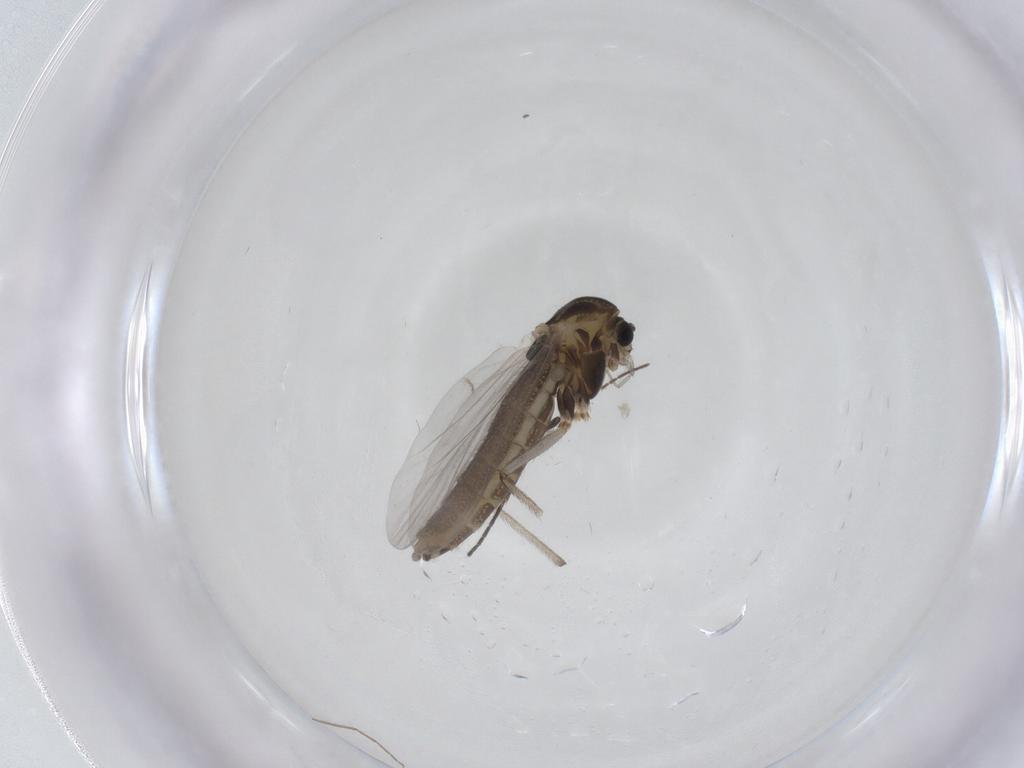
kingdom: Animalia
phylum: Arthropoda
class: Insecta
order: Diptera
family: Chironomidae
